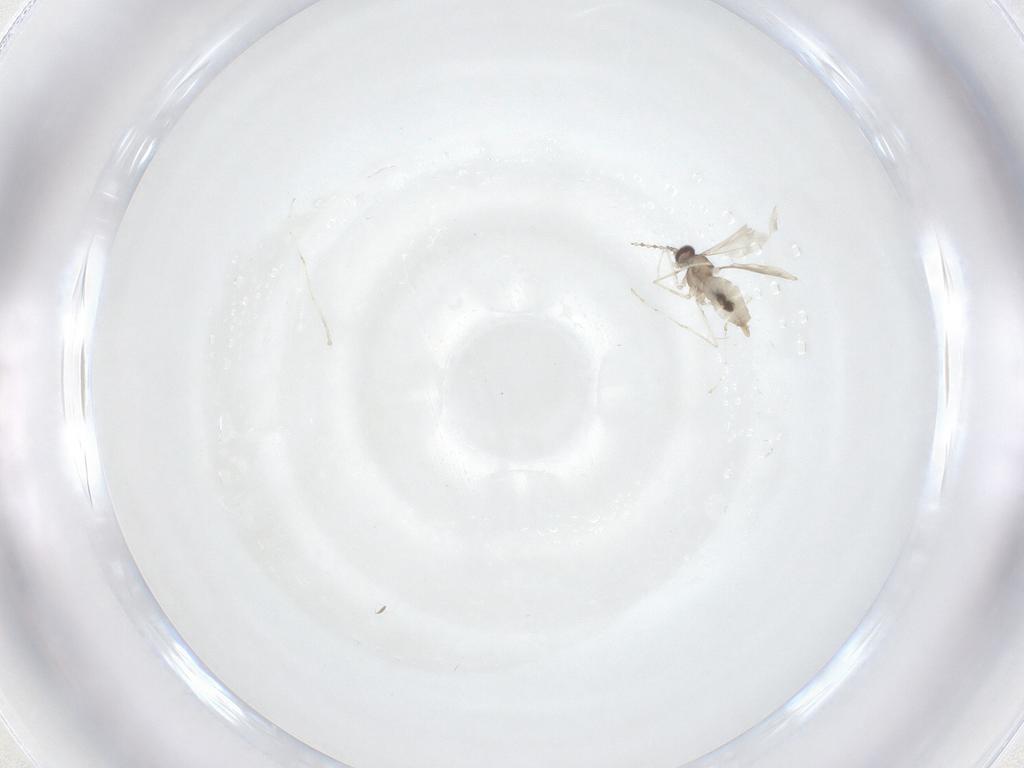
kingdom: Animalia
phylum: Arthropoda
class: Insecta
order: Diptera
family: Cecidomyiidae
